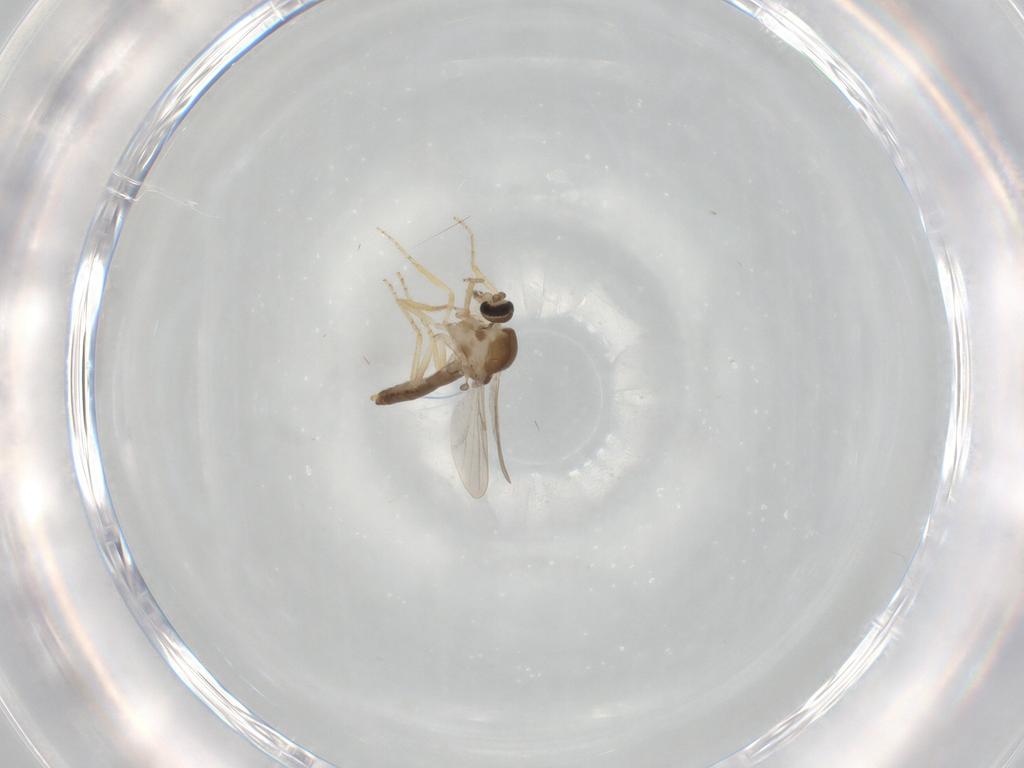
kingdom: Animalia
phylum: Arthropoda
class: Insecta
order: Diptera
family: Ceratopogonidae
